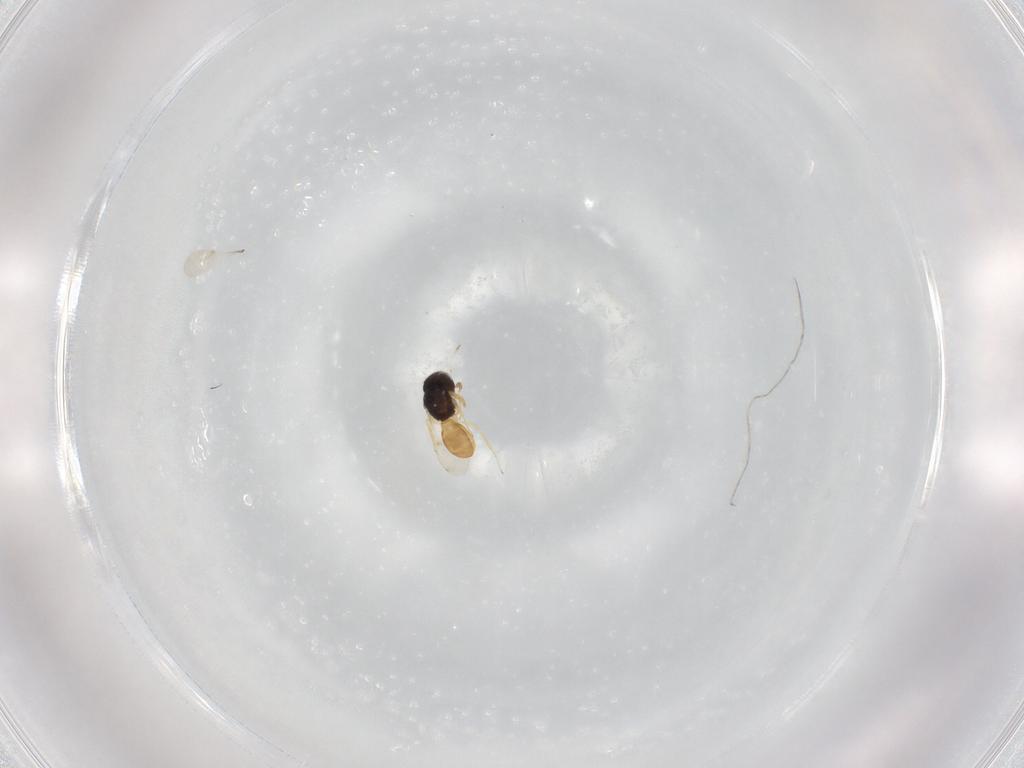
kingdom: Animalia
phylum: Arthropoda
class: Insecta
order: Hymenoptera
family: Scelionidae
